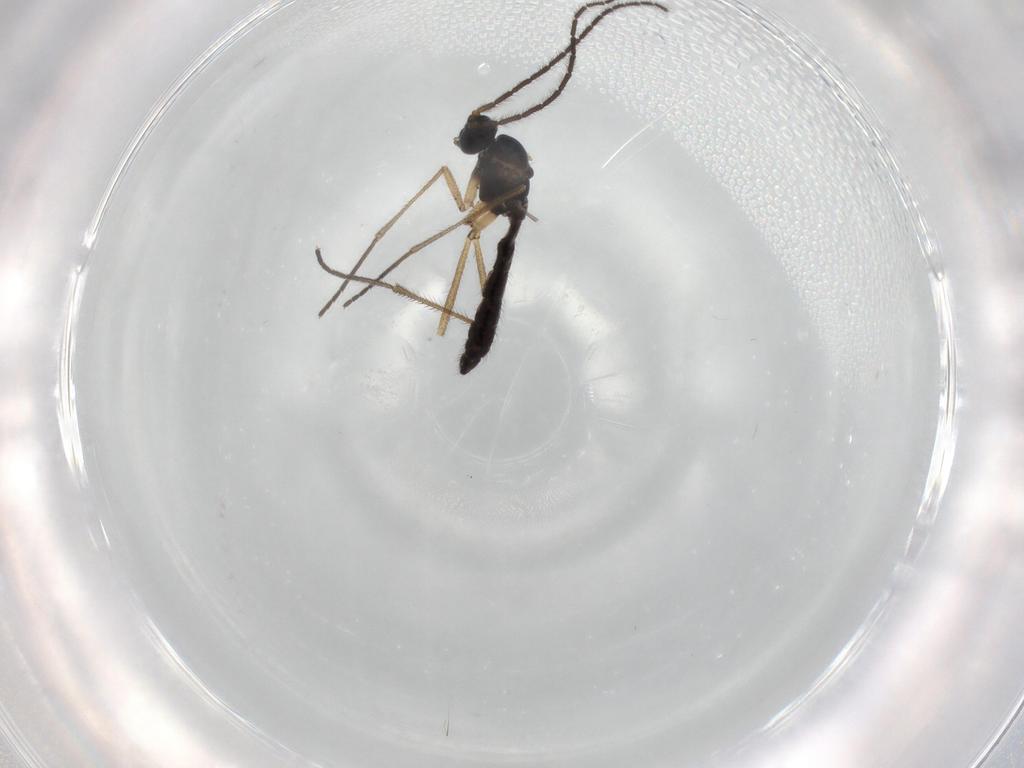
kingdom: Animalia
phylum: Arthropoda
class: Insecta
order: Diptera
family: Sciaridae
